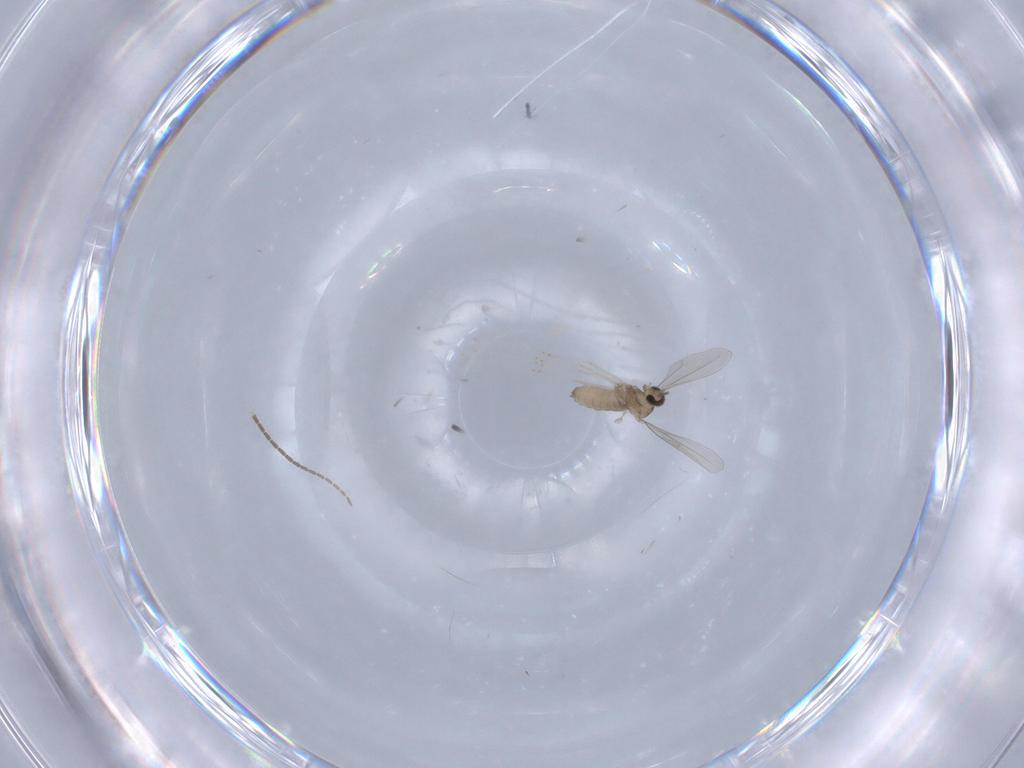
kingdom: Animalia
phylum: Arthropoda
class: Insecta
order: Diptera
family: Sciaridae
